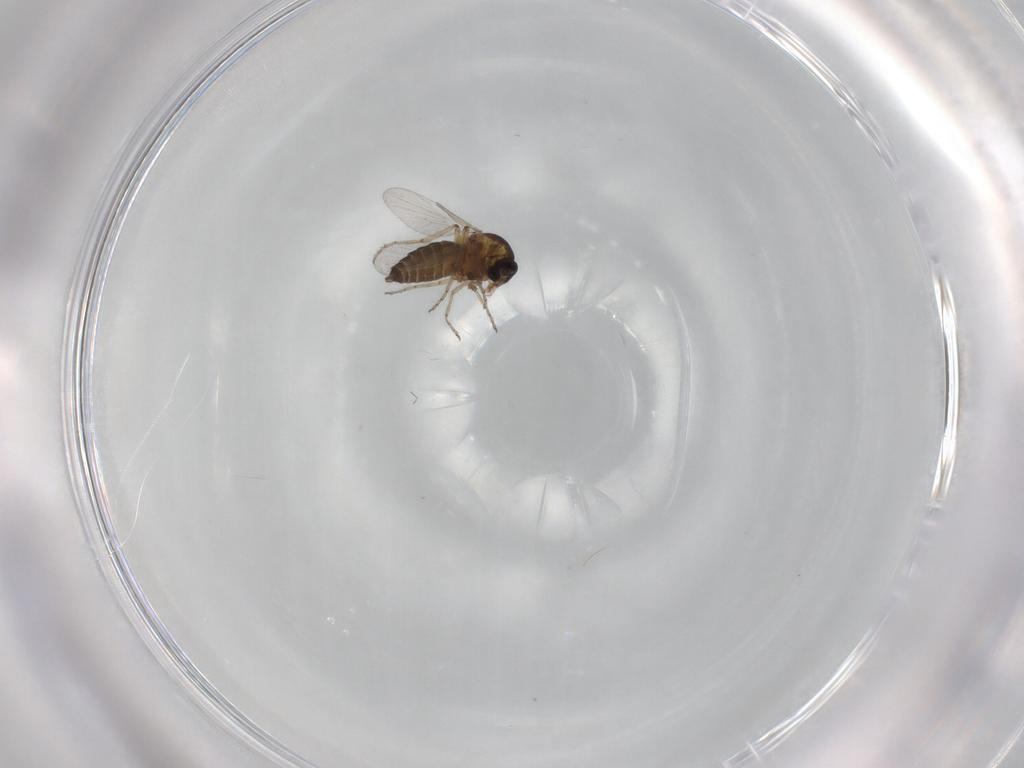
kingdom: Animalia
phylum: Arthropoda
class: Insecta
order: Diptera
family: Ceratopogonidae
